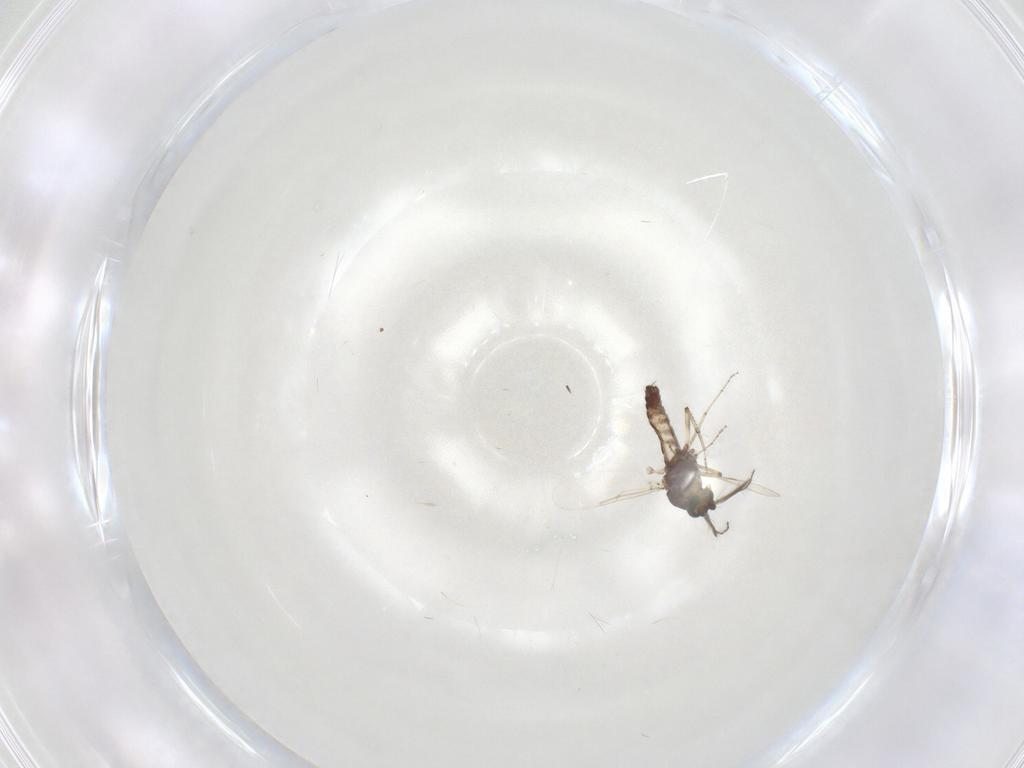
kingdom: Animalia
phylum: Arthropoda
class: Insecta
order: Diptera
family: Ceratopogonidae
